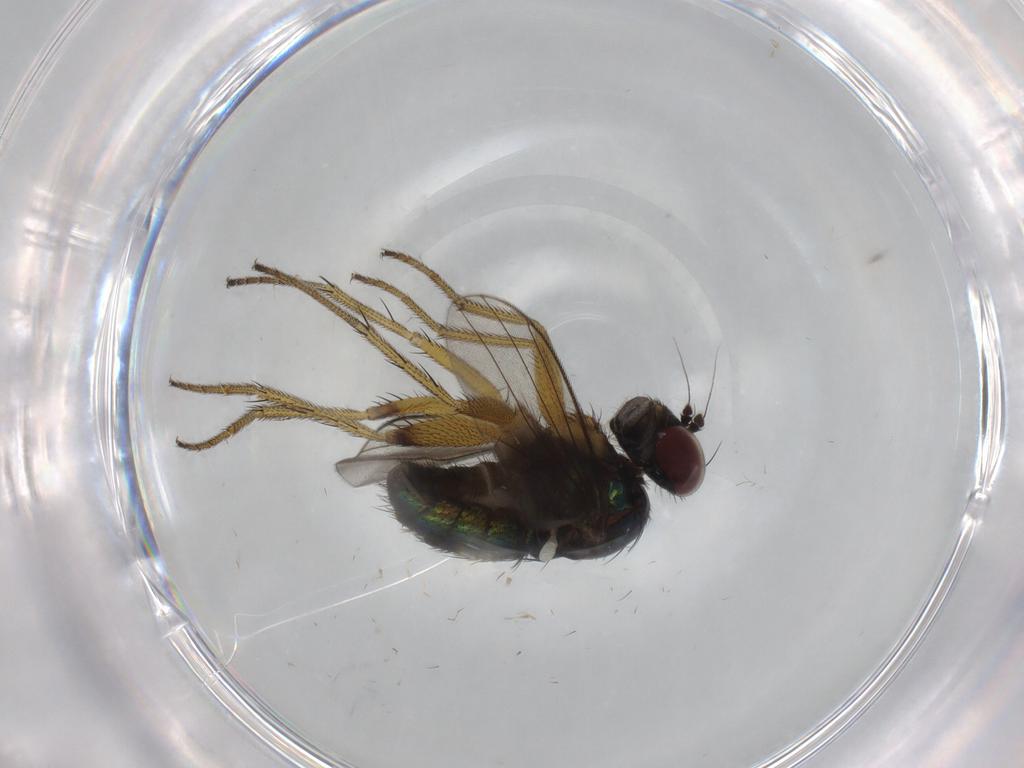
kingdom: Animalia
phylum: Arthropoda
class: Insecta
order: Diptera
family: Dolichopodidae
